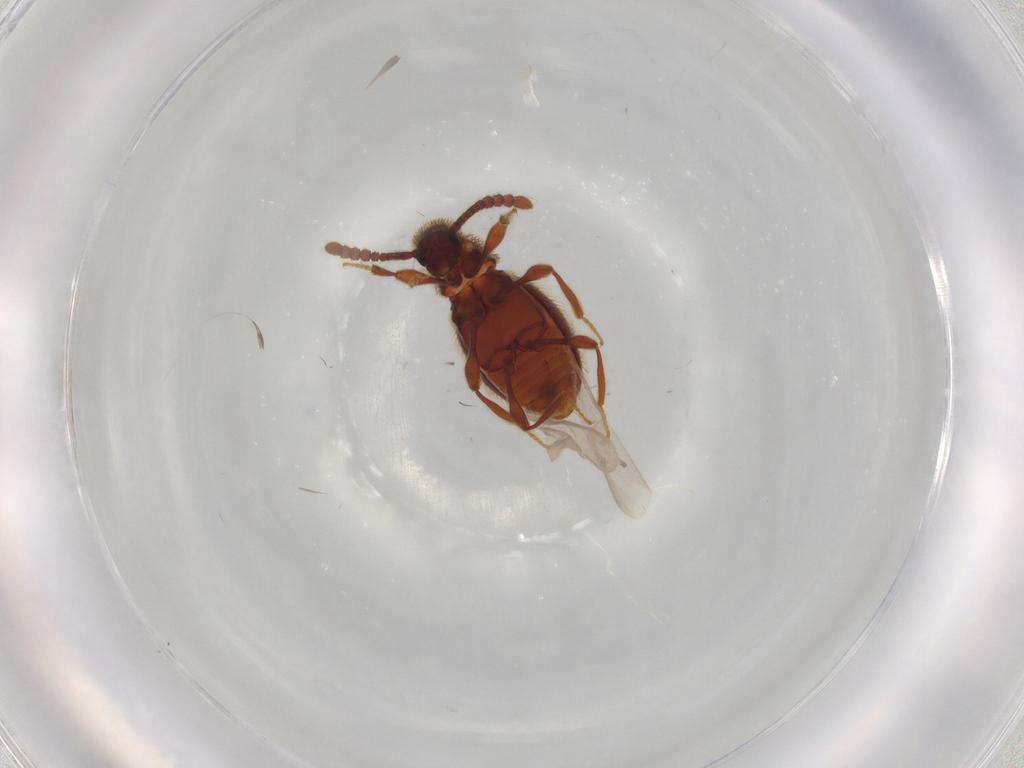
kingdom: Animalia
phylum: Arthropoda
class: Insecta
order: Coleoptera
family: Staphylinidae
